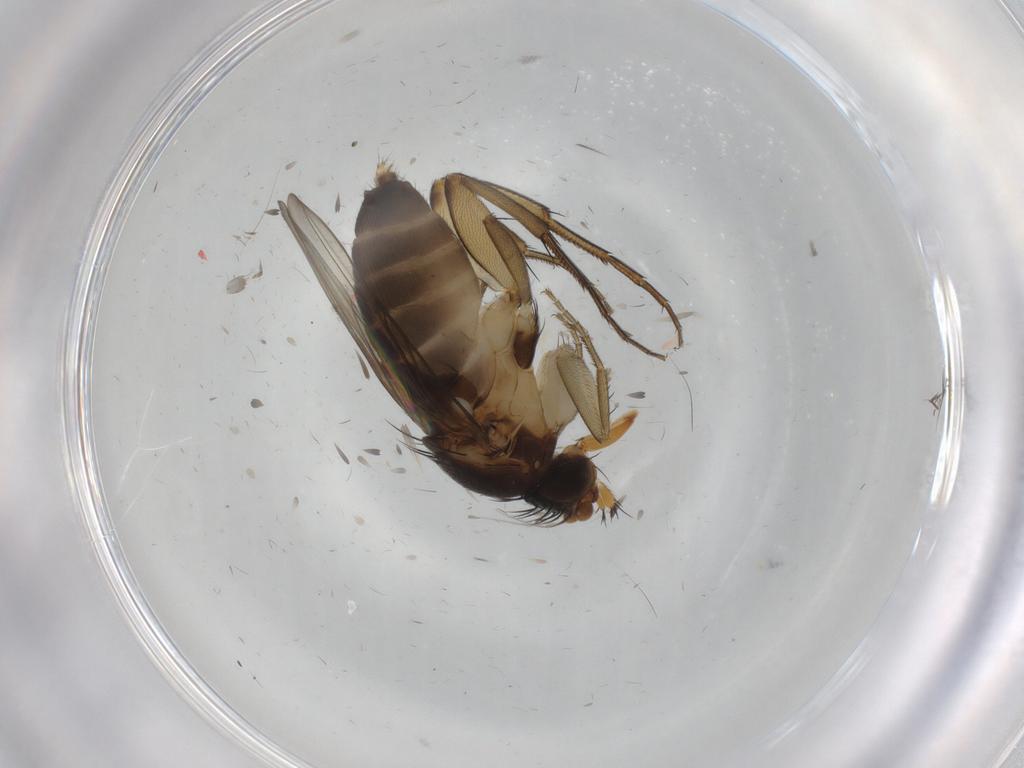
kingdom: Animalia
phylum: Arthropoda
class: Insecta
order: Diptera
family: Phoridae
